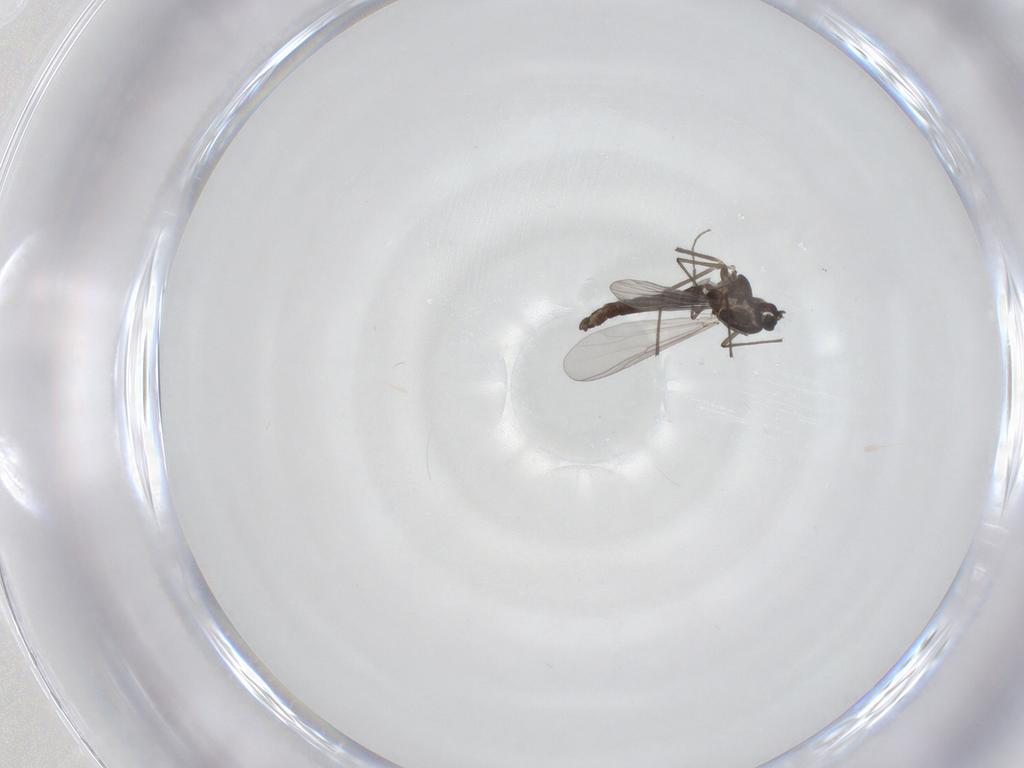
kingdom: Animalia
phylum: Arthropoda
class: Insecta
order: Diptera
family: Chironomidae
